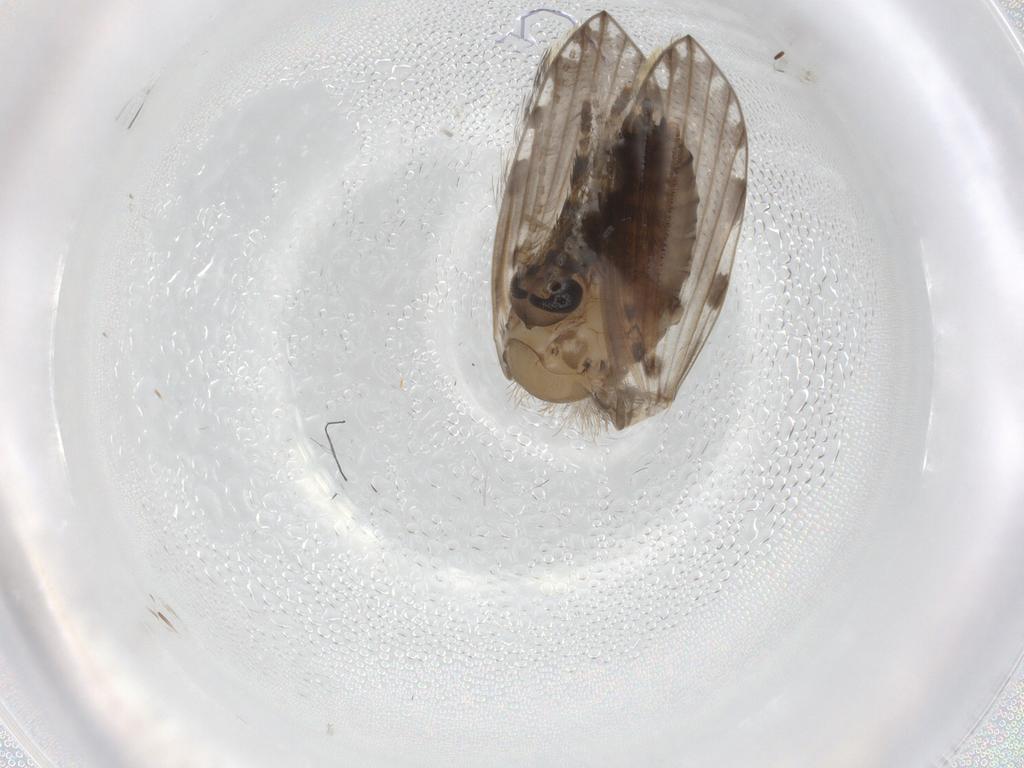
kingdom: Animalia
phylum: Arthropoda
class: Insecta
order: Diptera
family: Psychodidae
